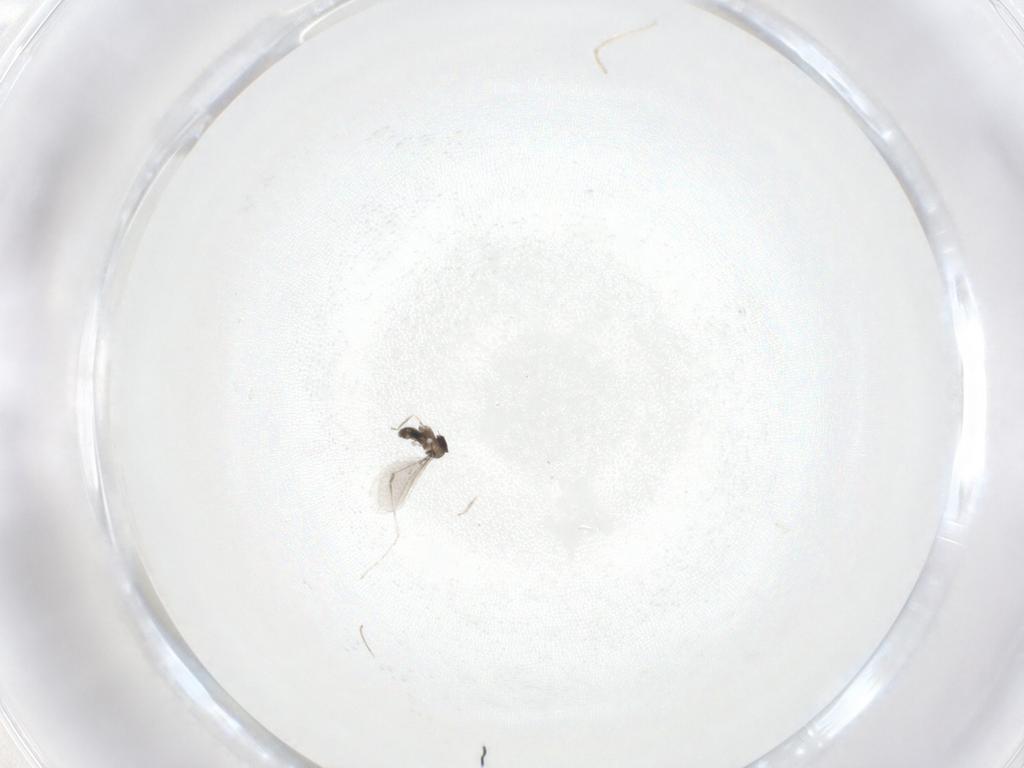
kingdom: Animalia
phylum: Arthropoda
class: Insecta
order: Diptera
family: Cecidomyiidae
